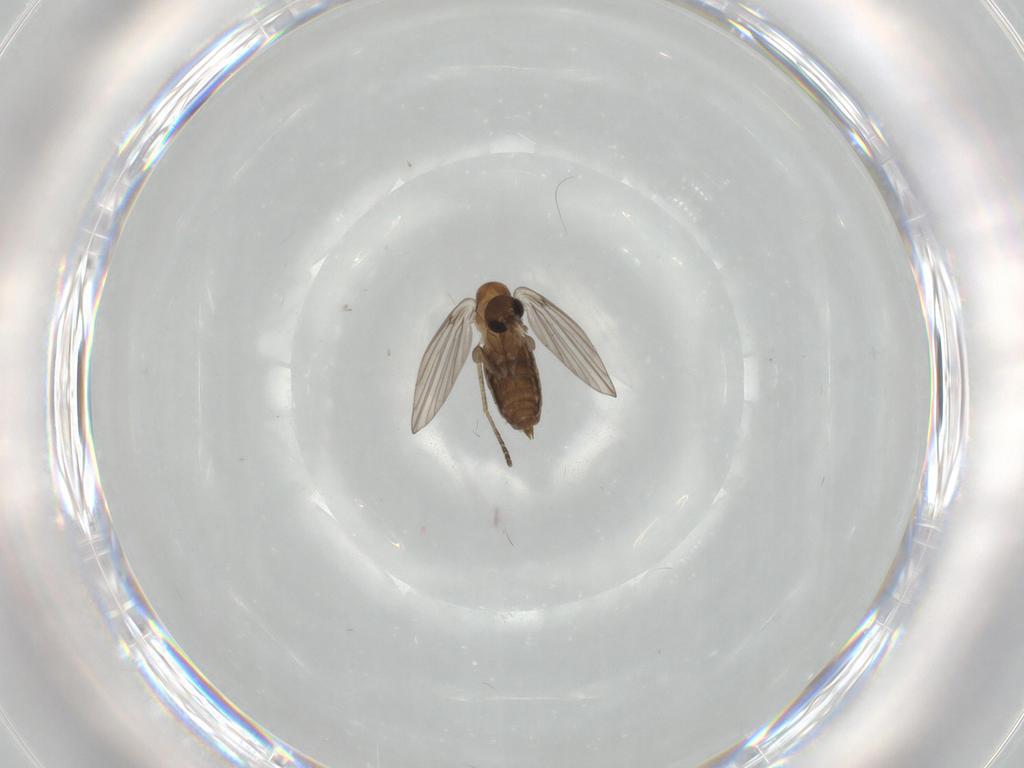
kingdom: Animalia
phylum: Arthropoda
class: Insecta
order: Diptera
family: Psychodidae
